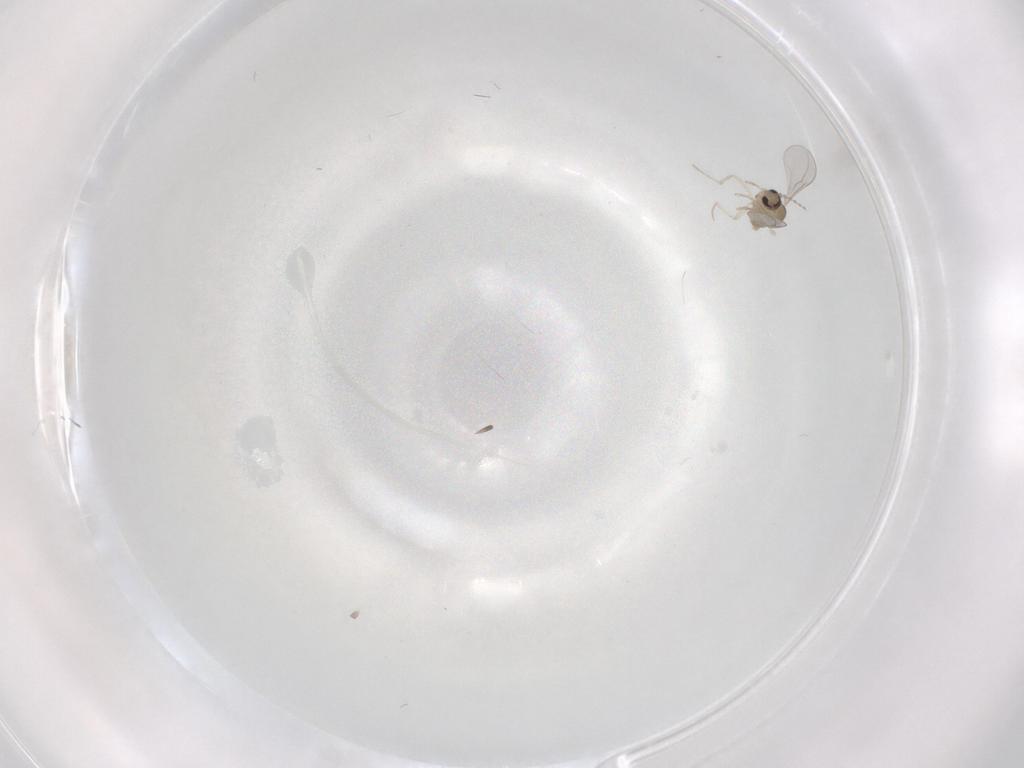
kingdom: Animalia
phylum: Arthropoda
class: Insecta
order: Diptera
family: Cecidomyiidae
